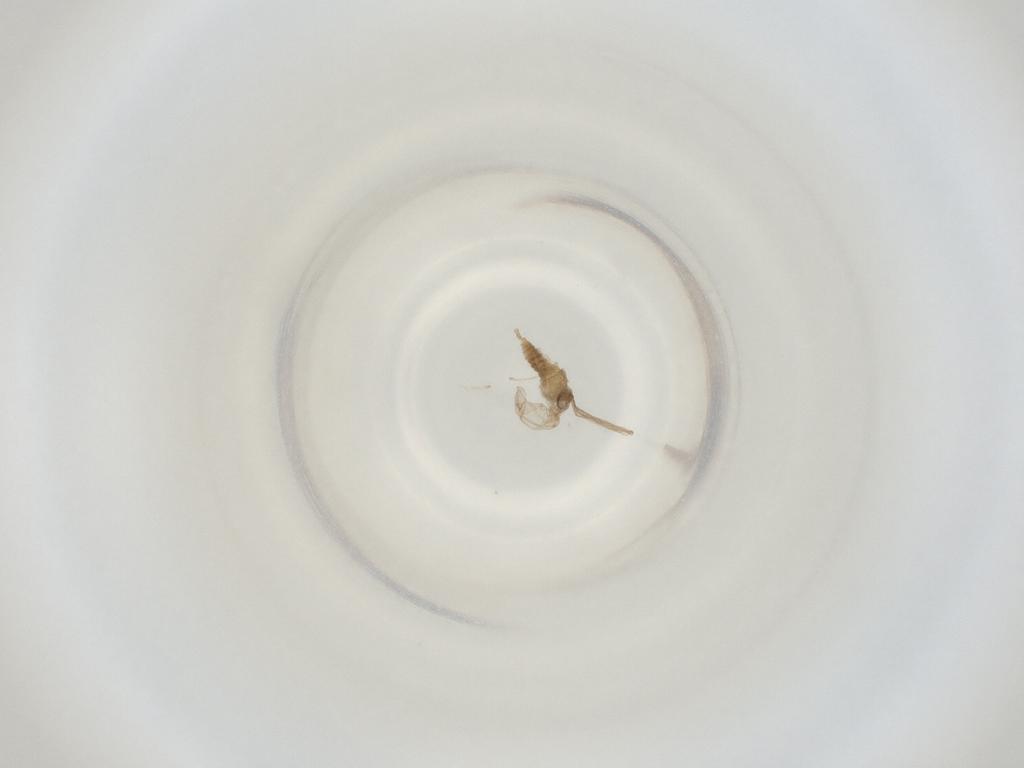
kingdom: Animalia
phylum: Arthropoda
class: Insecta
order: Diptera
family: Cecidomyiidae
